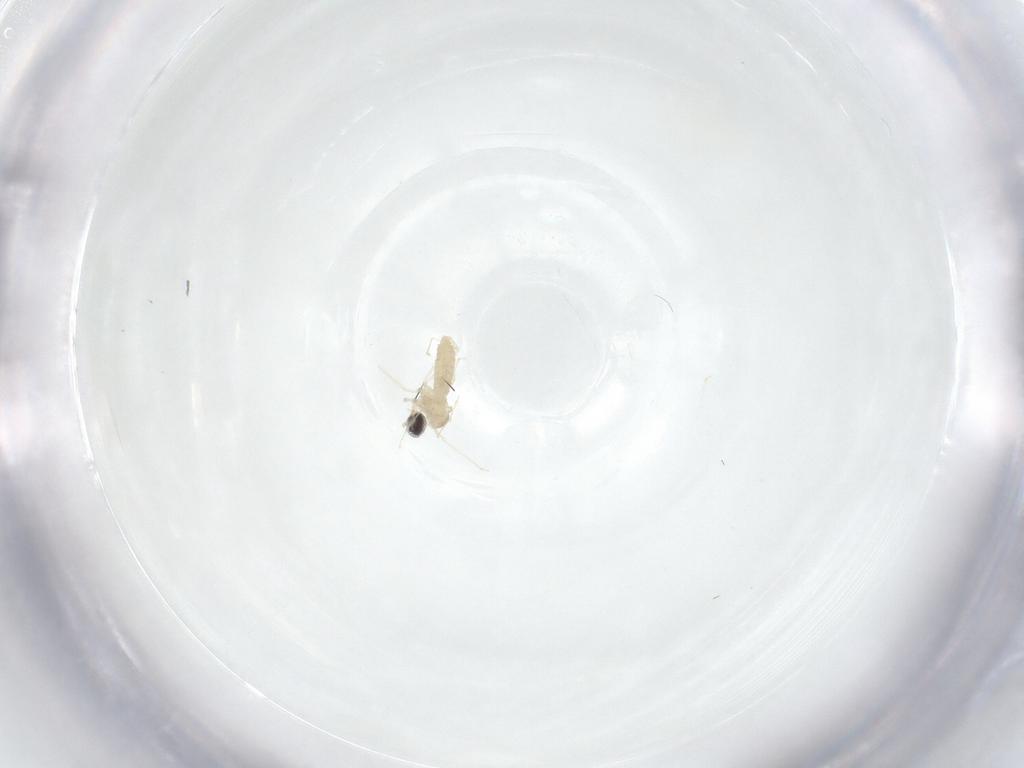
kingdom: Animalia
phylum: Arthropoda
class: Insecta
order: Diptera
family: Cecidomyiidae
